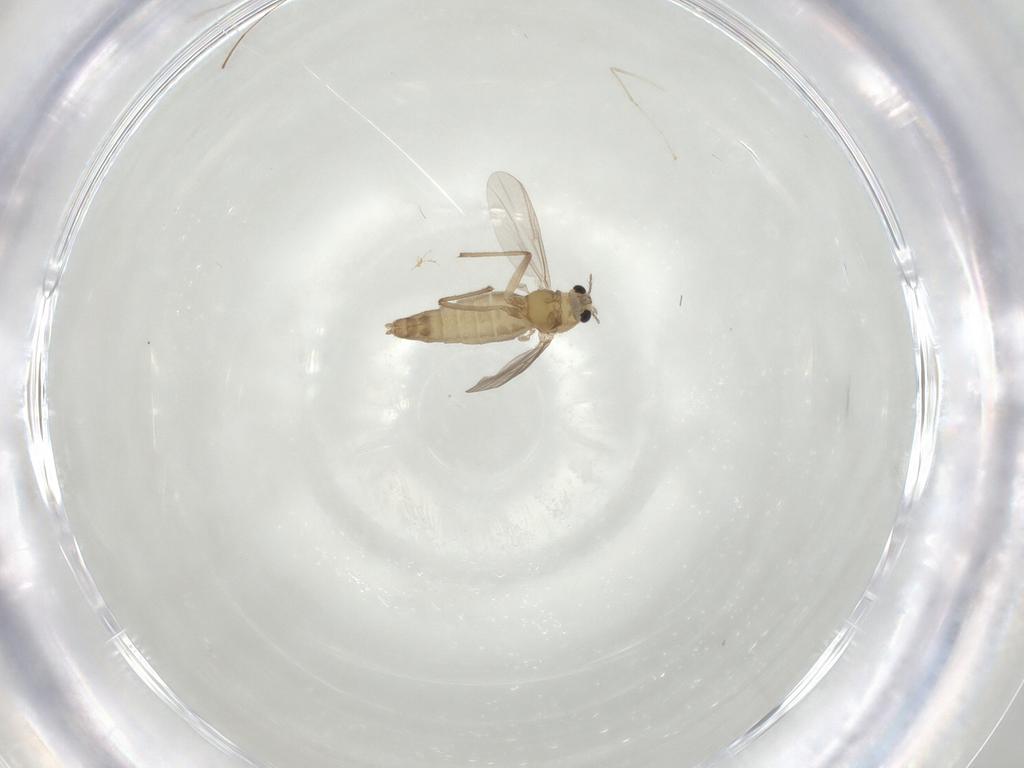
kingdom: Animalia
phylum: Arthropoda
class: Insecta
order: Diptera
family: Chironomidae
